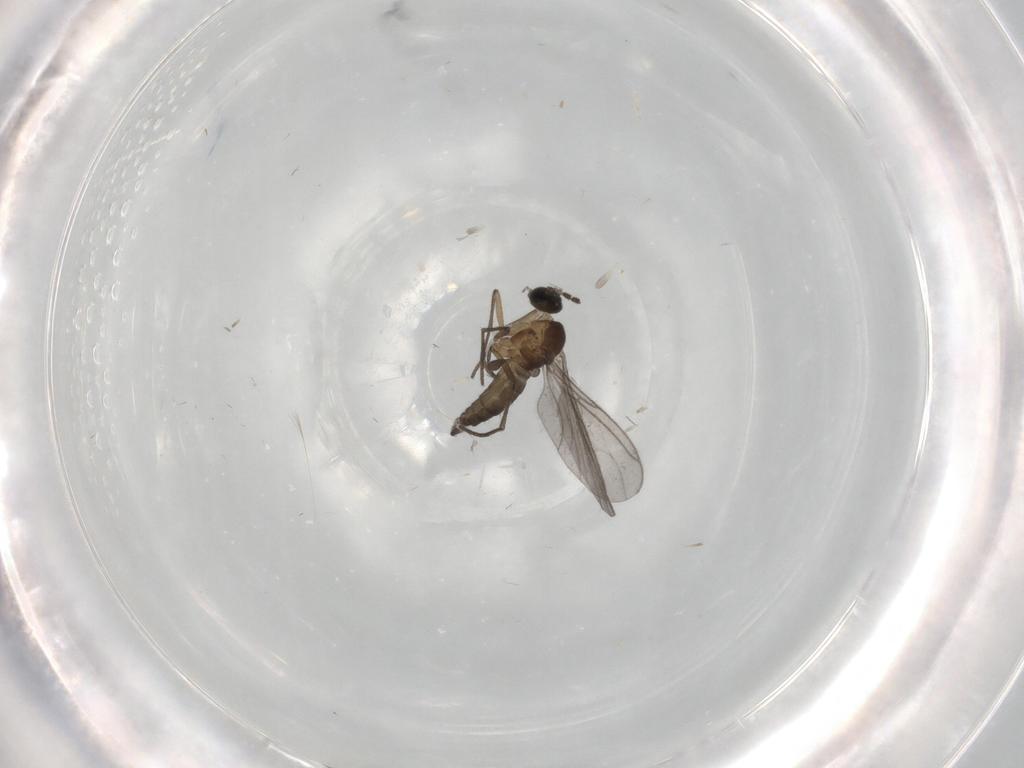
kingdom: Animalia
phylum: Arthropoda
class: Insecta
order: Diptera
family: Sciaridae
